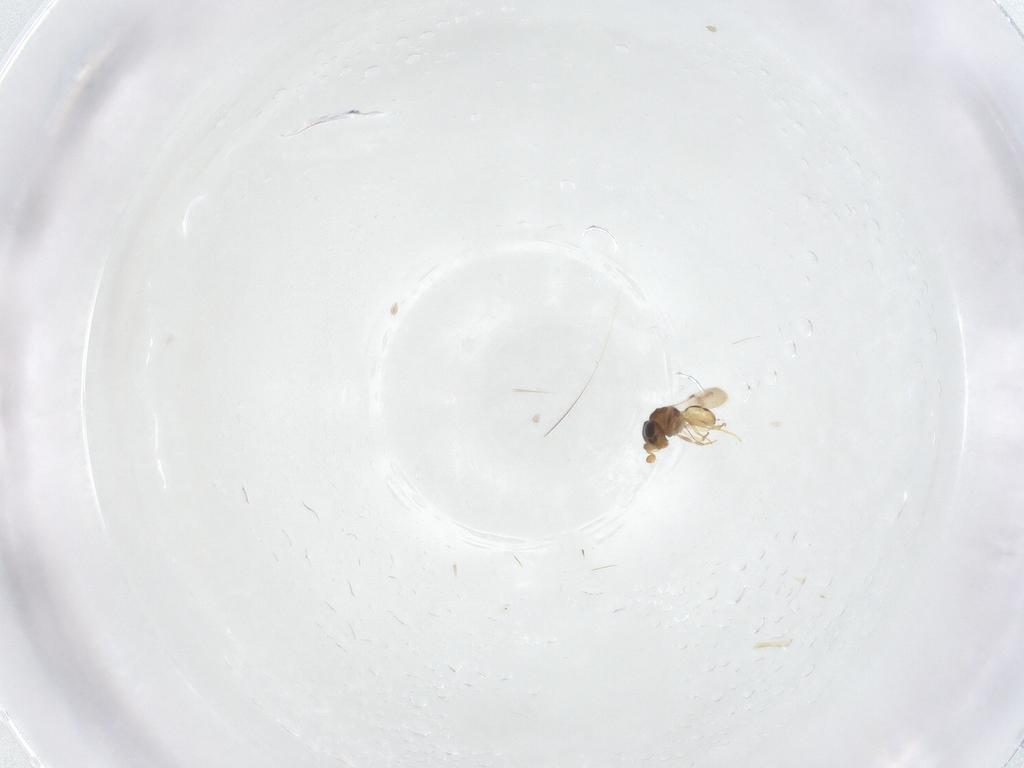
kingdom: Animalia
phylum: Arthropoda
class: Insecta
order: Hymenoptera
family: Scelionidae
